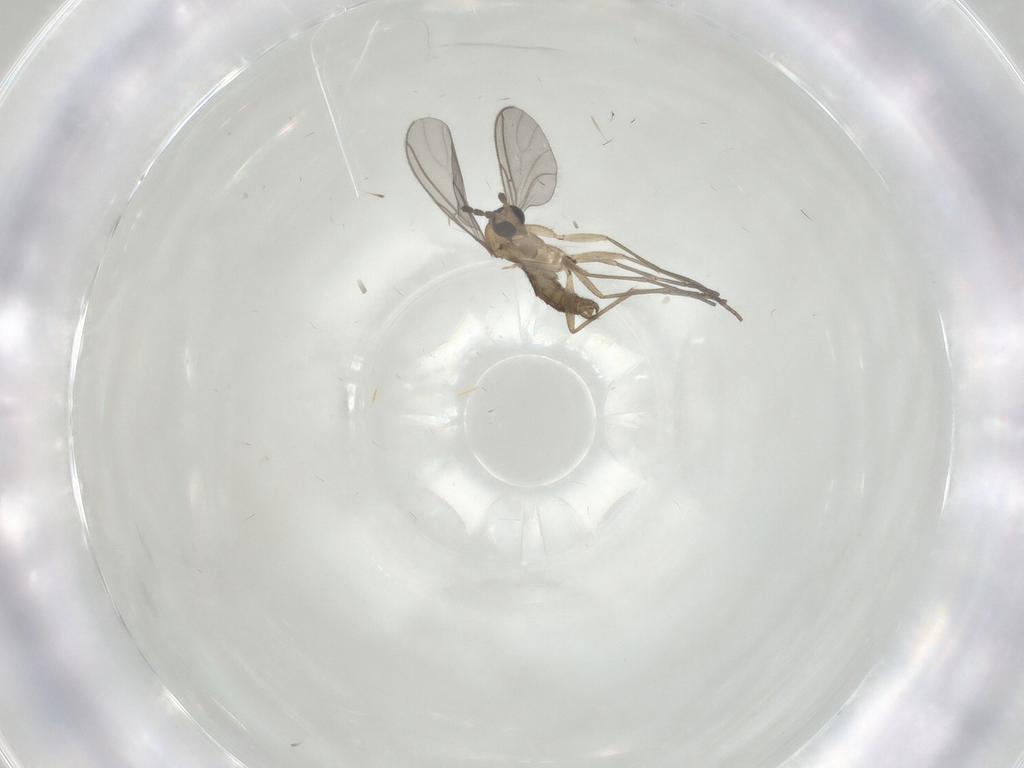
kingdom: Animalia
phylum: Arthropoda
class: Insecta
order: Diptera
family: Sciaridae
